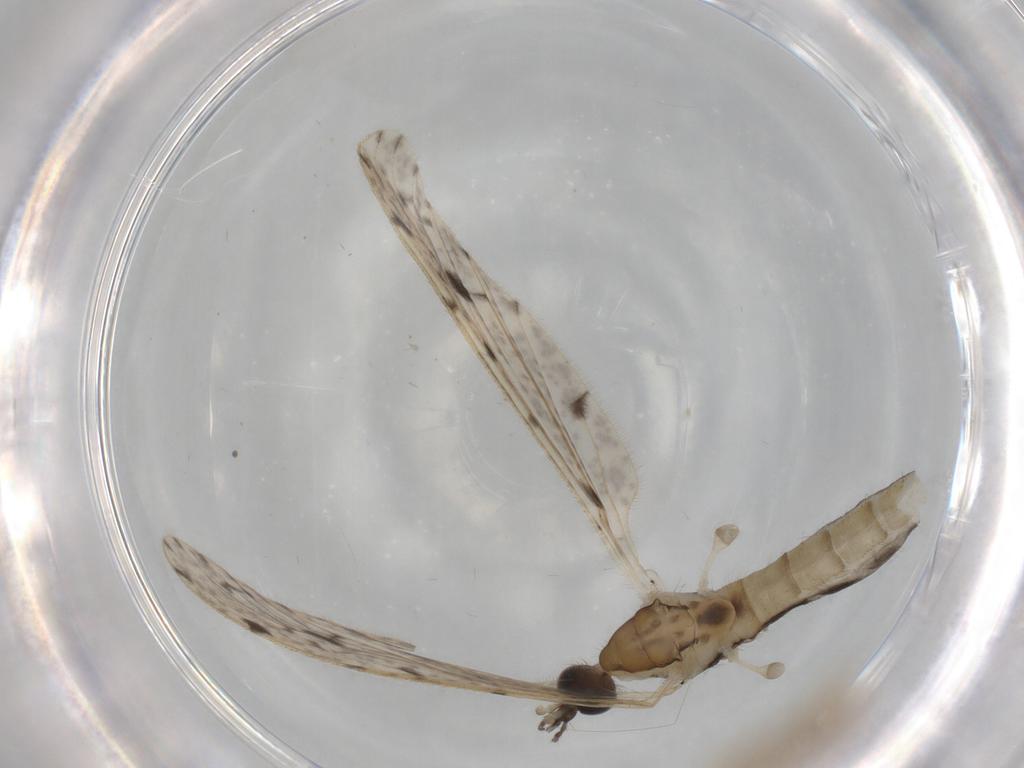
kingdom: Animalia
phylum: Arthropoda
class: Insecta
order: Diptera
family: Cecidomyiidae
